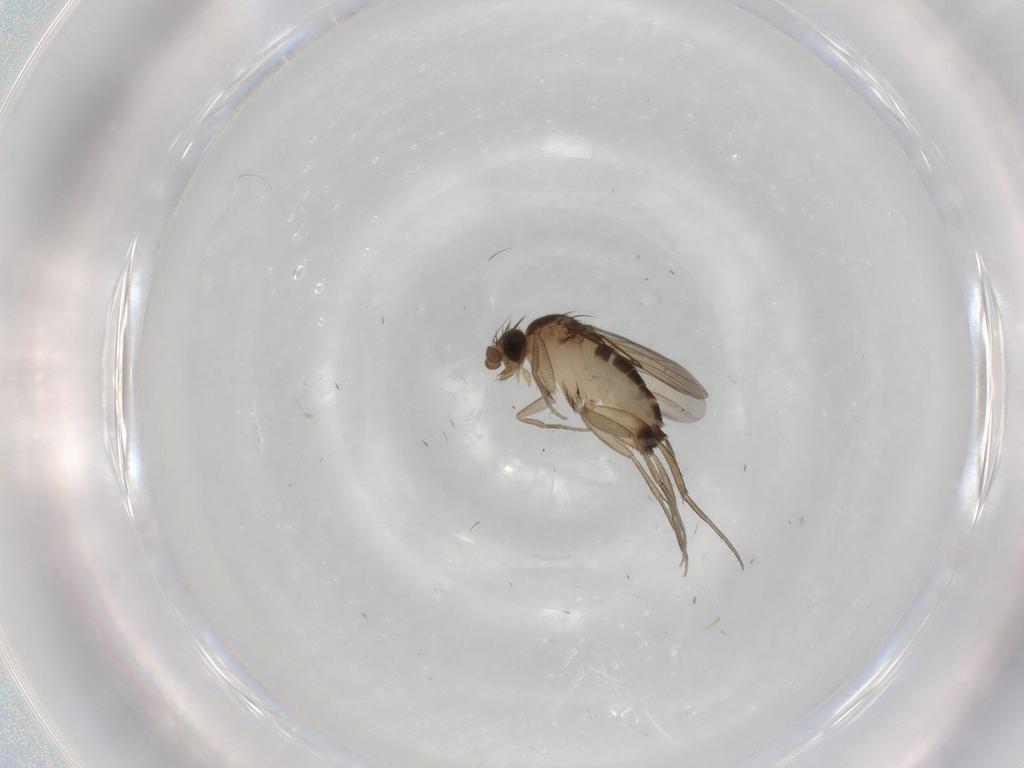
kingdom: Animalia
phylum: Arthropoda
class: Insecta
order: Diptera
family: Phoridae
